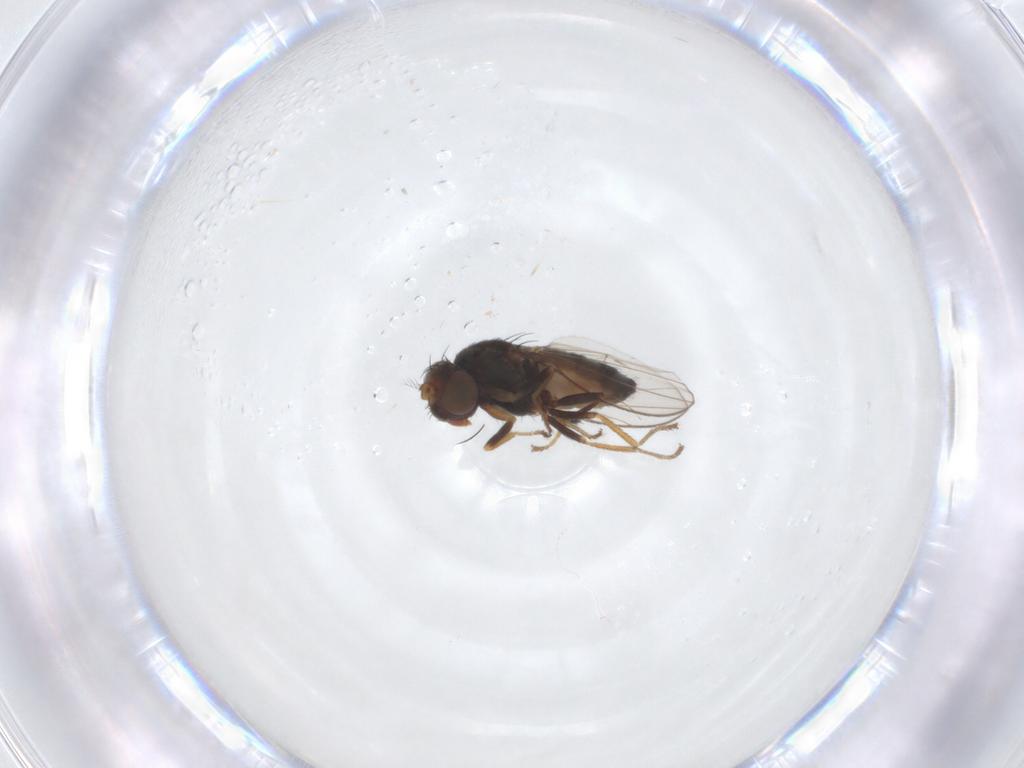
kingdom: Animalia
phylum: Arthropoda
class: Insecta
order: Diptera
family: Ephydridae
